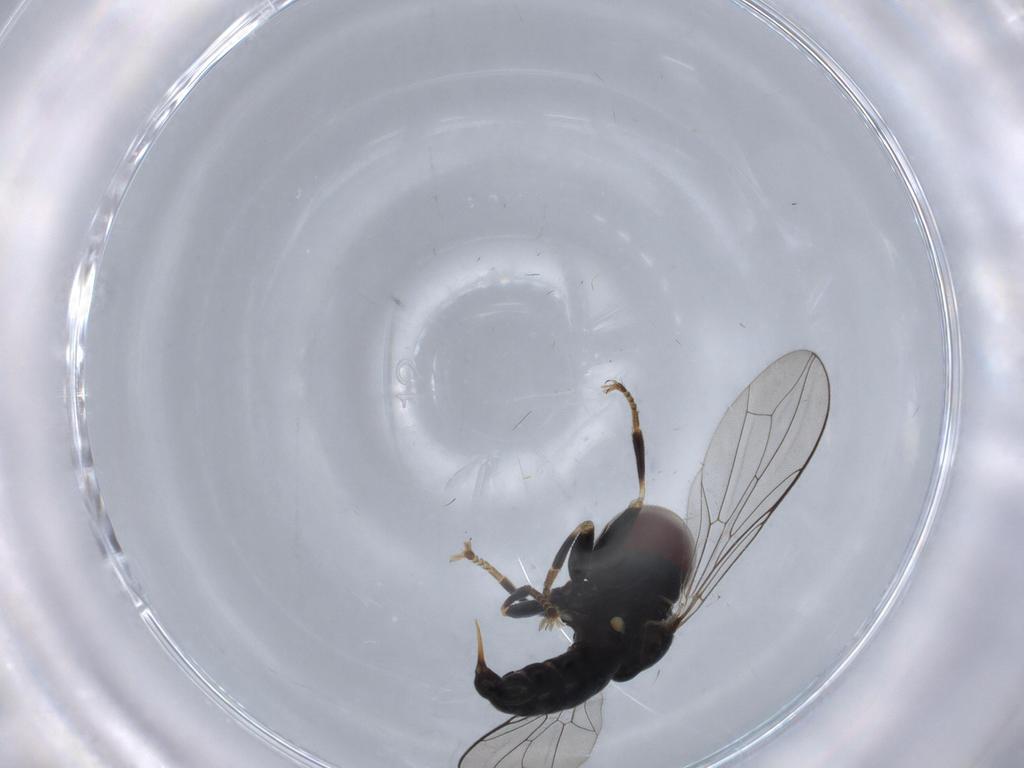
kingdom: Animalia
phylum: Arthropoda
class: Insecta
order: Diptera
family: Pipunculidae
